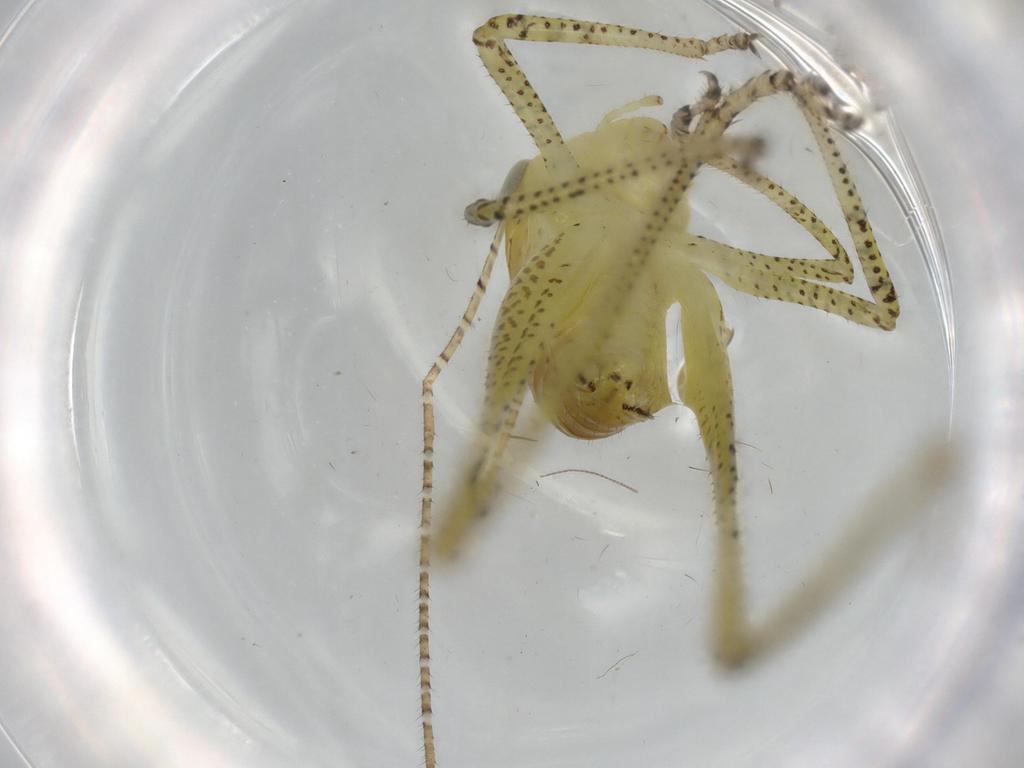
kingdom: Animalia
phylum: Arthropoda
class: Insecta
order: Orthoptera
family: Tettigoniidae
